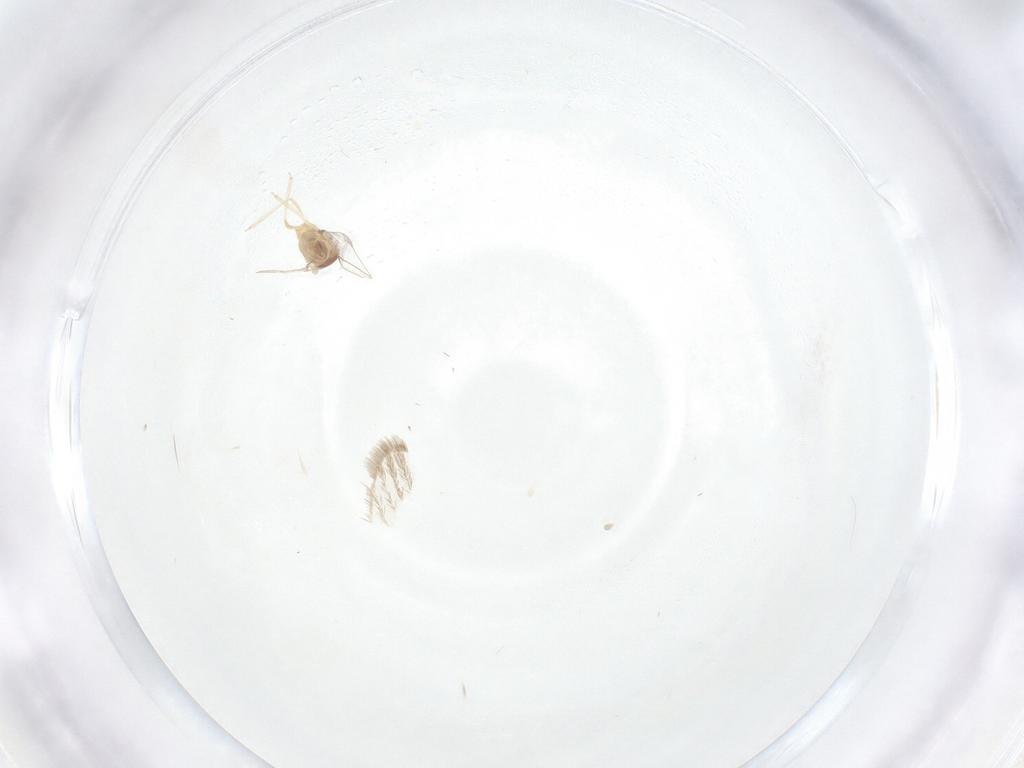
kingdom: Animalia
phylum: Arthropoda
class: Insecta
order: Diptera
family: Cecidomyiidae
